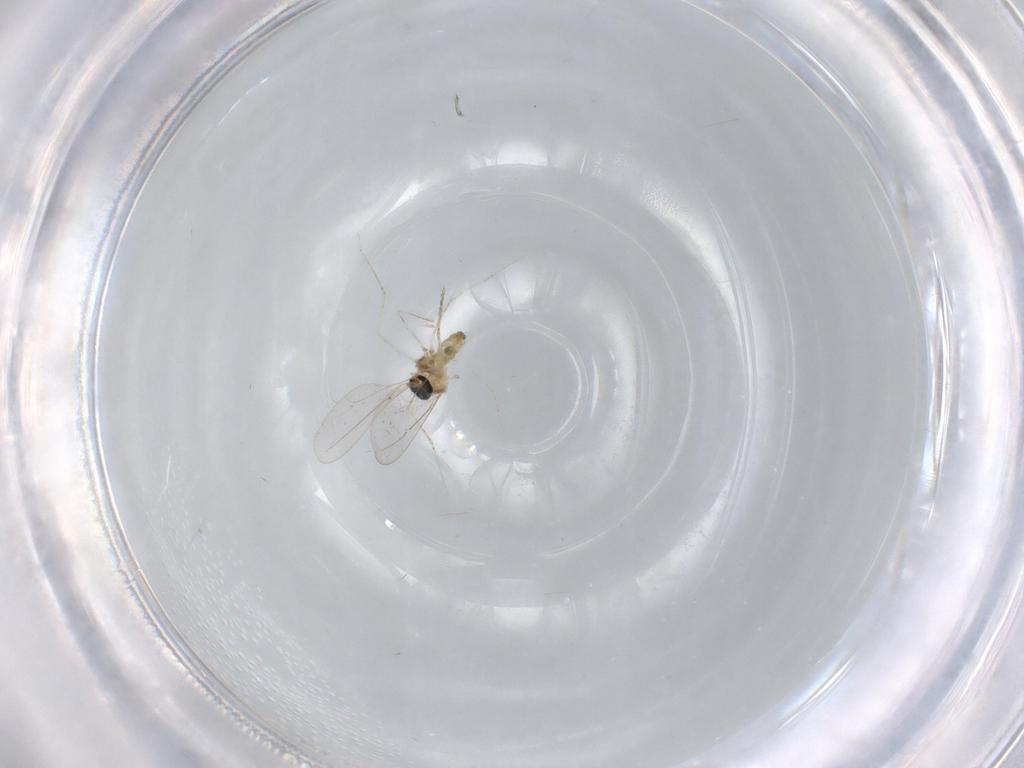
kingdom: Animalia
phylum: Arthropoda
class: Insecta
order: Diptera
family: Cecidomyiidae
